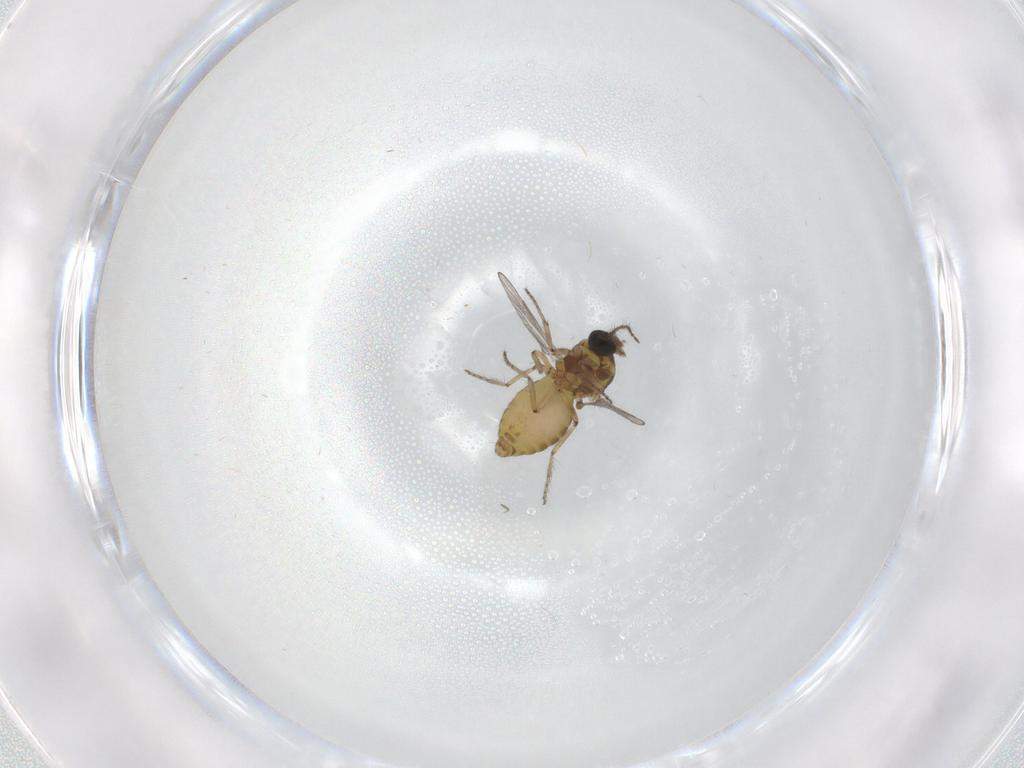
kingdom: Animalia
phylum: Arthropoda
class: Insecta
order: Diptera
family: Ceratopogonidae
